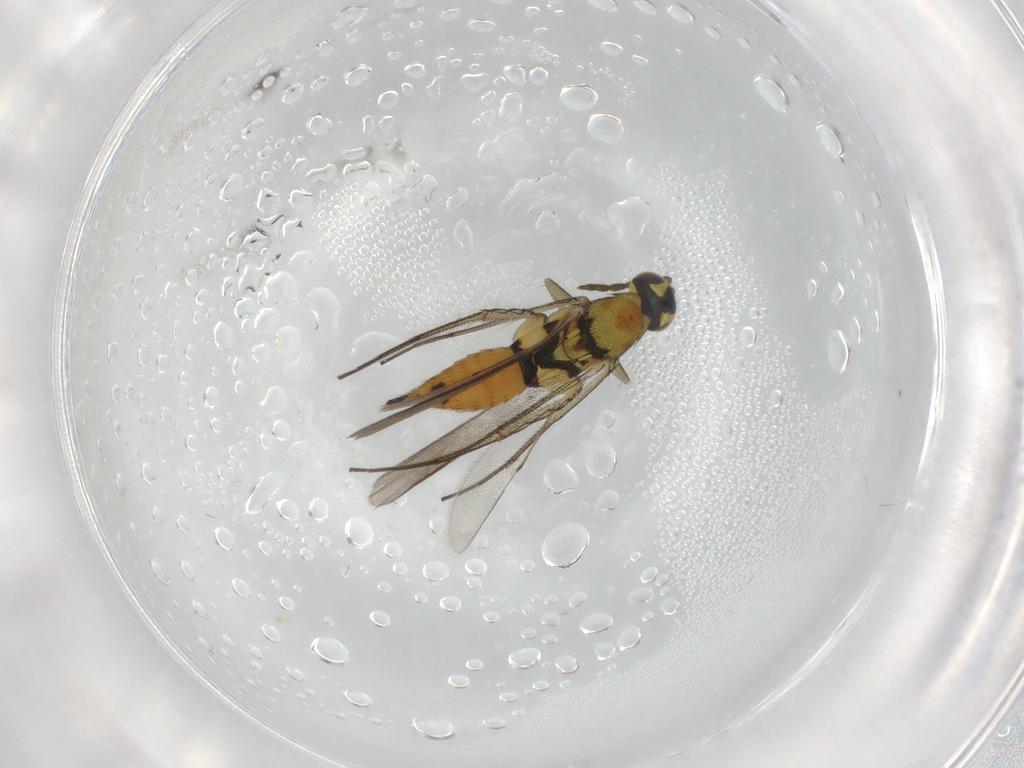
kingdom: Animalia
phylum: Arthropoda
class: Insecta
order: Hymenoptera
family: Eulophidae
